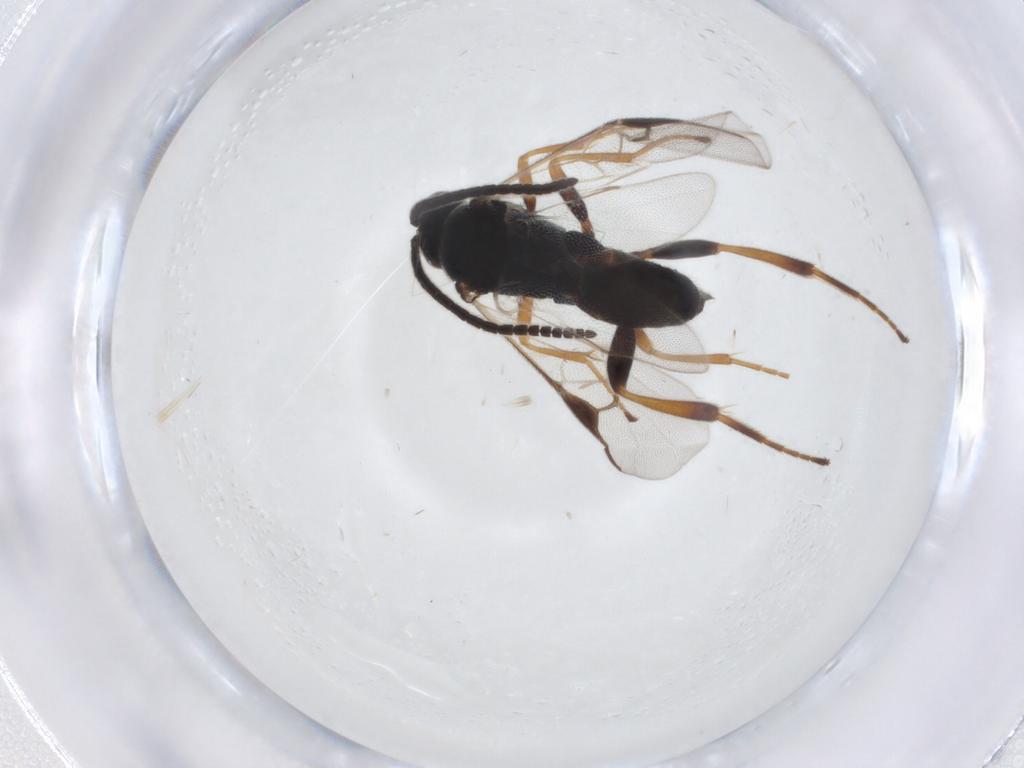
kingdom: Animalia
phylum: Arthropoda
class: Insecta
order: Hymenoptera
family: Braconidae
